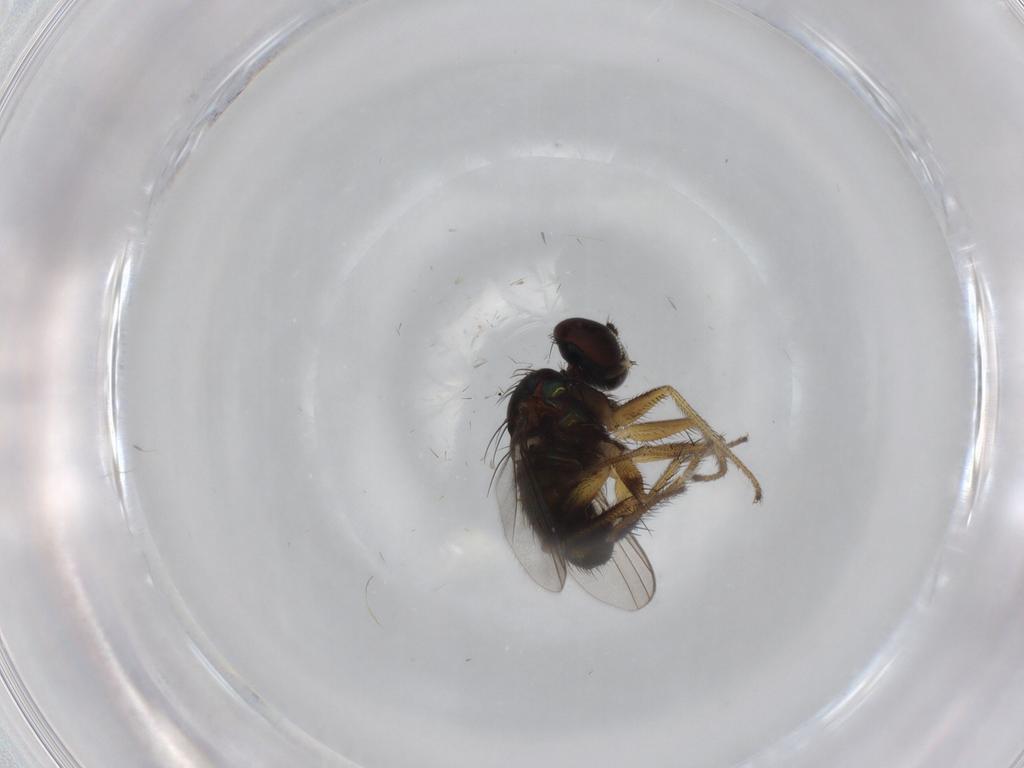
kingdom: Animalia
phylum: Arthropoda
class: Insecta
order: Diptera
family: Dolichopodidae
